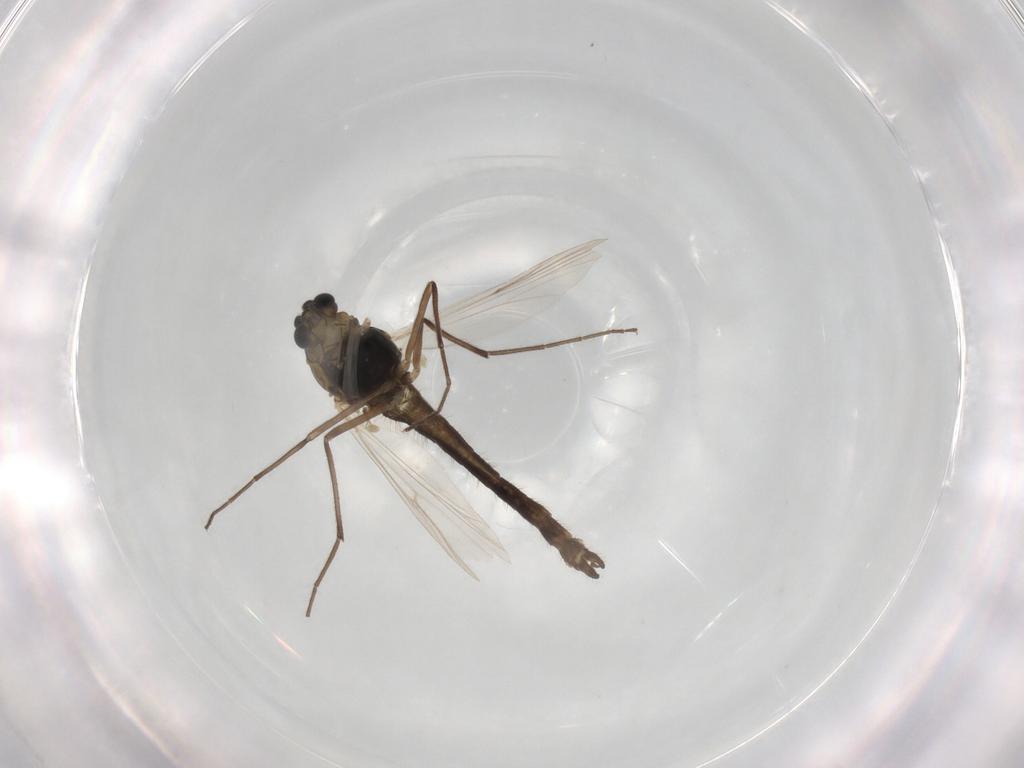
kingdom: Animalia
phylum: Arthropoda
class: Insecta
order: Diptera
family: Chironomidae
